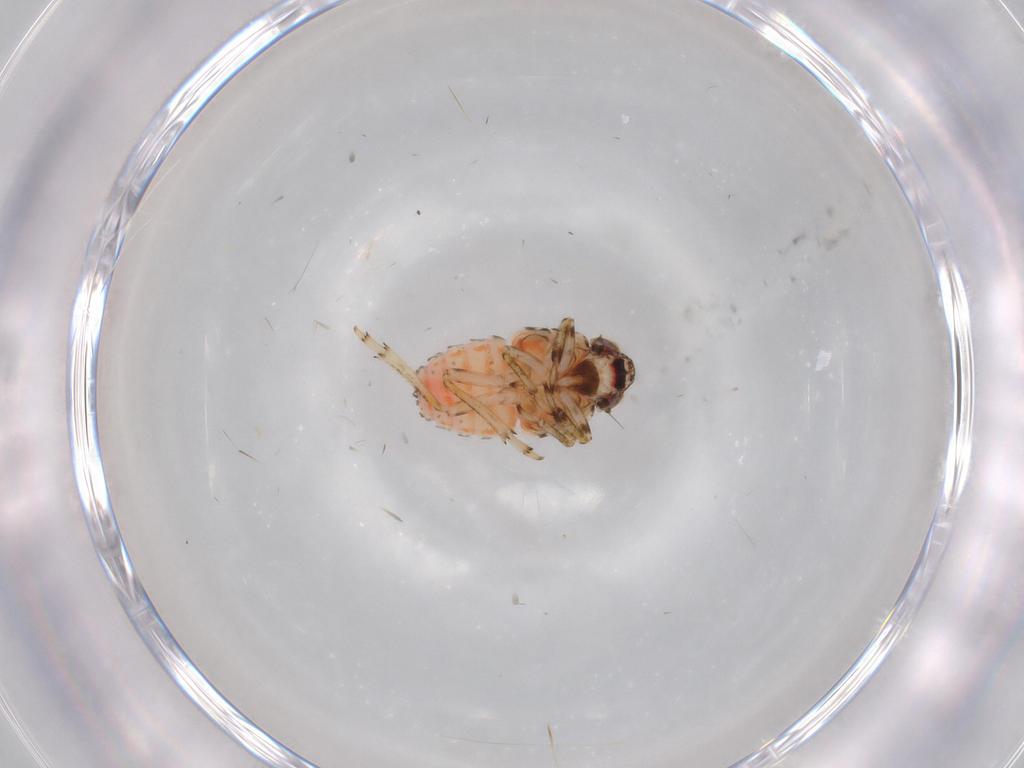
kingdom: Animalia
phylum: Arthropoda
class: Insecta
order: Hemiptera
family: Issidae
